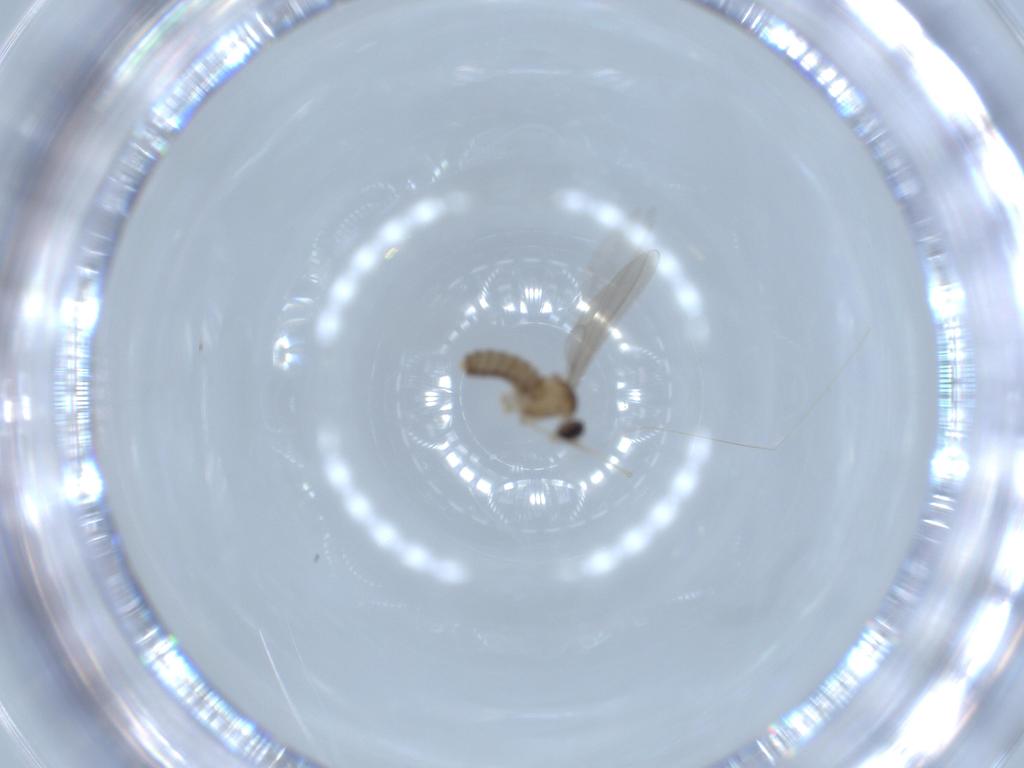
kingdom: Animalia
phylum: Arthropoda
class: Insecta
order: Diptera
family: Cecidomyiidae
